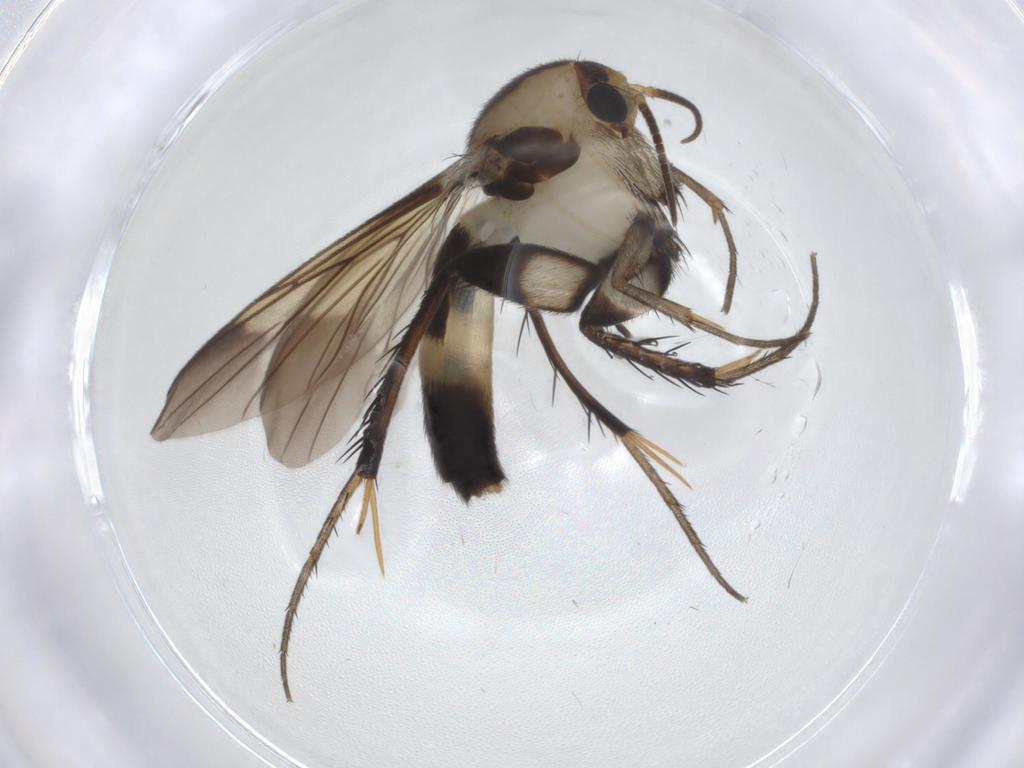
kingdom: Animalia
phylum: Arthropoda
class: Insecta
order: Diptera
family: Mycetophilidae
